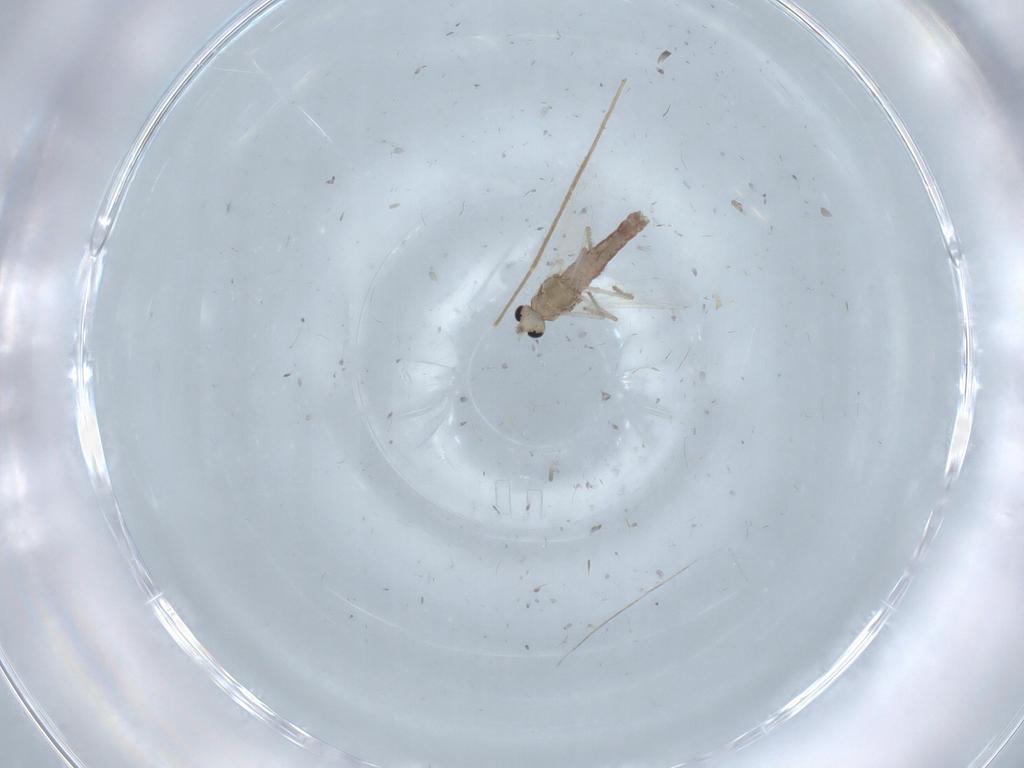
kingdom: Animalia
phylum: Arthropoda
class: Insecta
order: Diptera
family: Chironomidae
